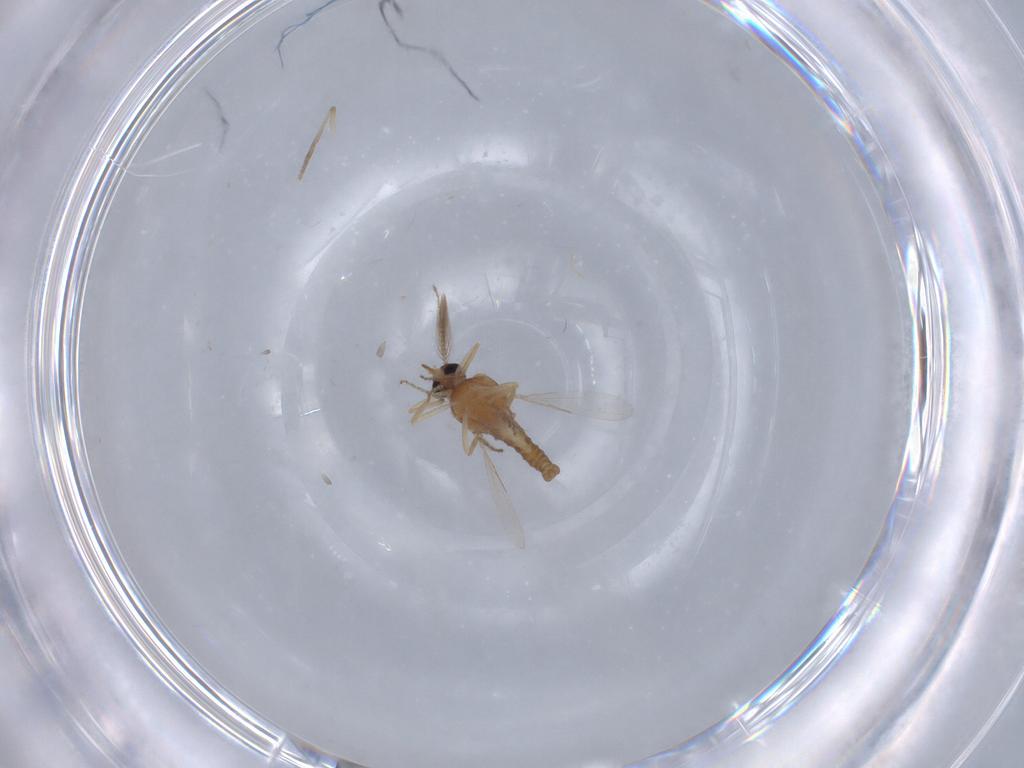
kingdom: Animalia
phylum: Arthropoda
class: Insecta
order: Diptera
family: Ceratopogonidae
